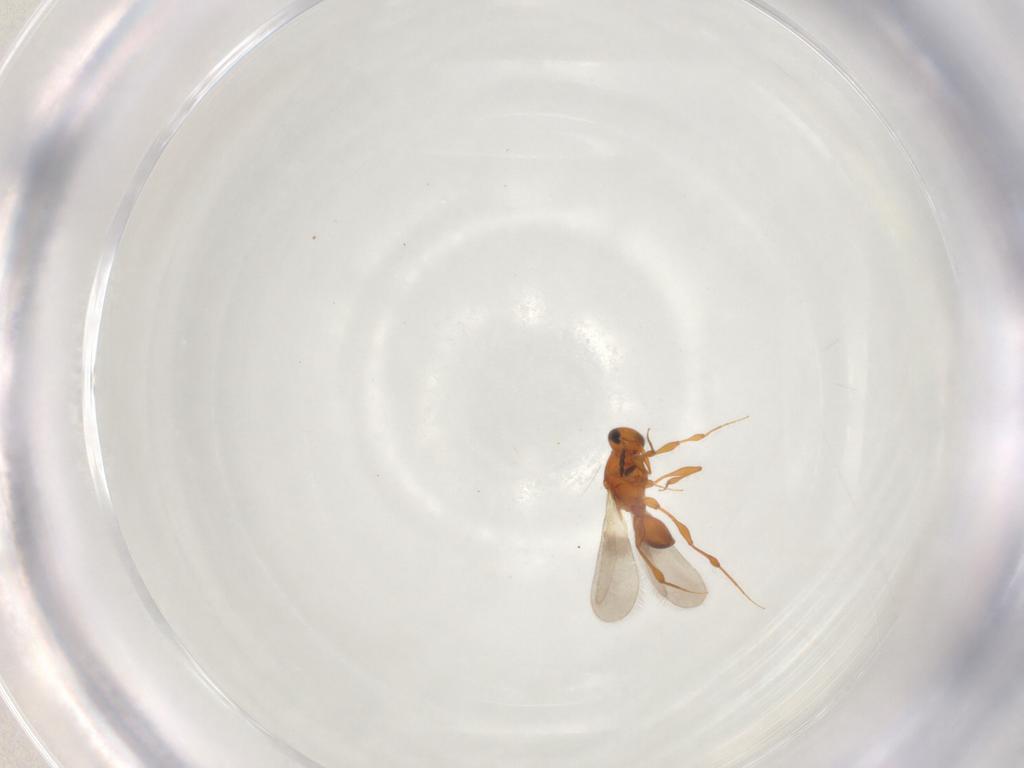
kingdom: Animalia
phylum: Arthropoda
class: Insecta
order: Hymenoptera
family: Platygastridae
